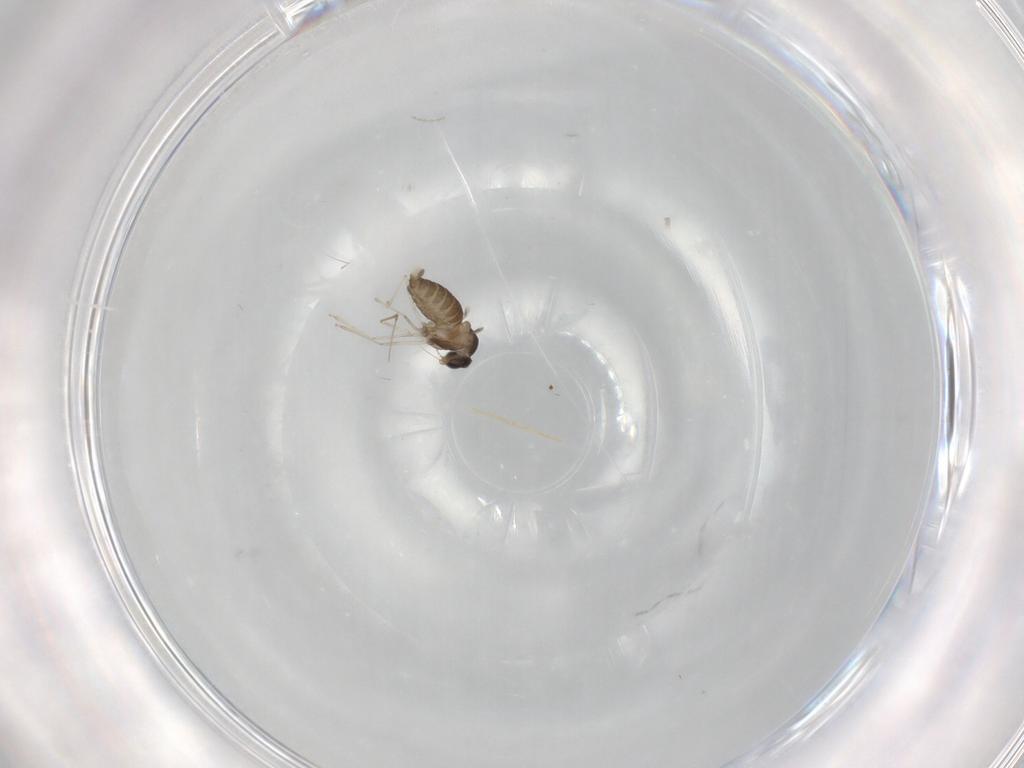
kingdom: Animalia
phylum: Arthropoda
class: Insecta
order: Diptera
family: Cecidomyiidae
